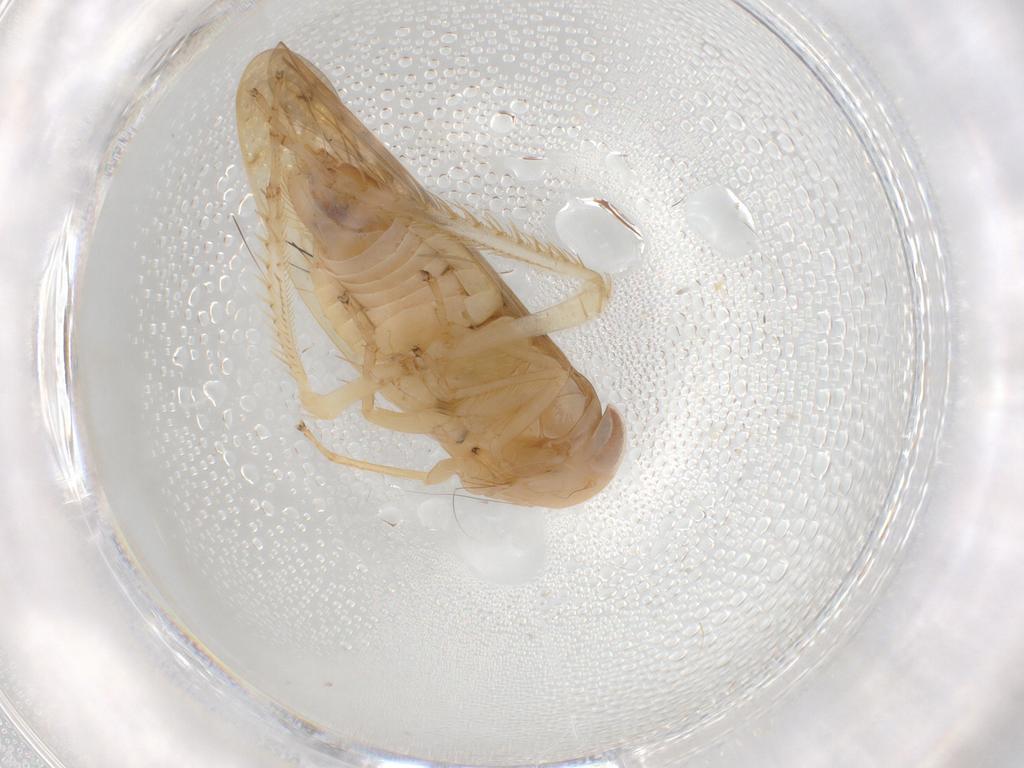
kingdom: Animalia
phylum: Arthropoda
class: Insecta
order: Hemiptera
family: Cicadellidae
